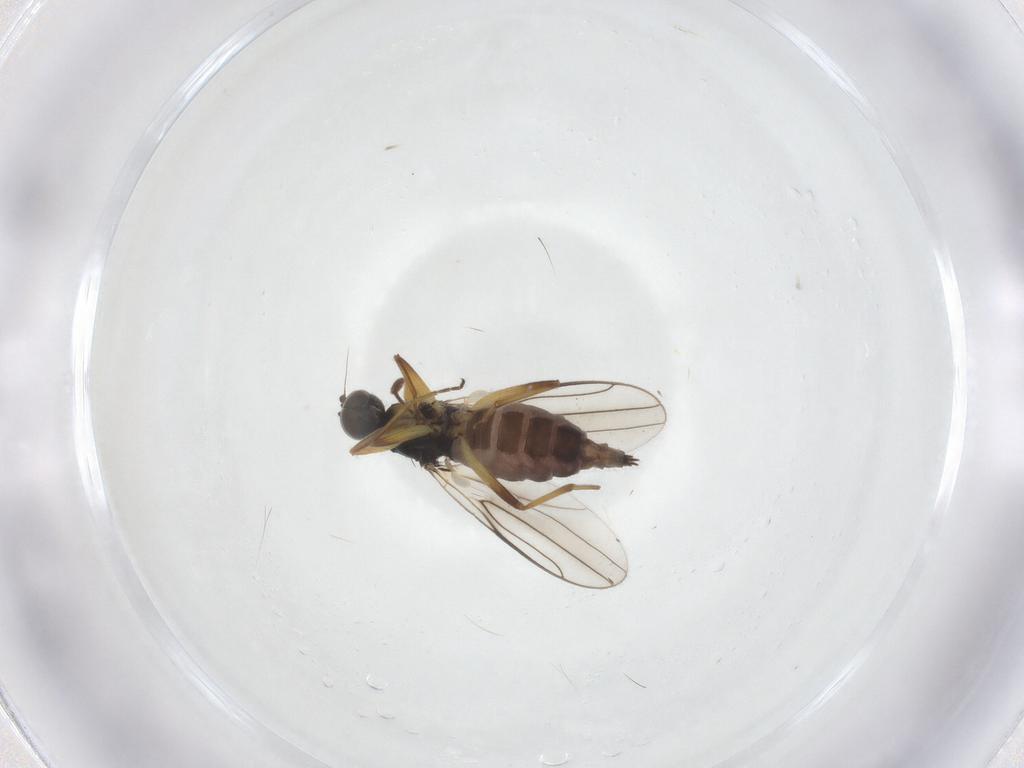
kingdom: Animalia
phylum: Arthropoda
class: Insecta
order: Diptera
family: Hybotidae
